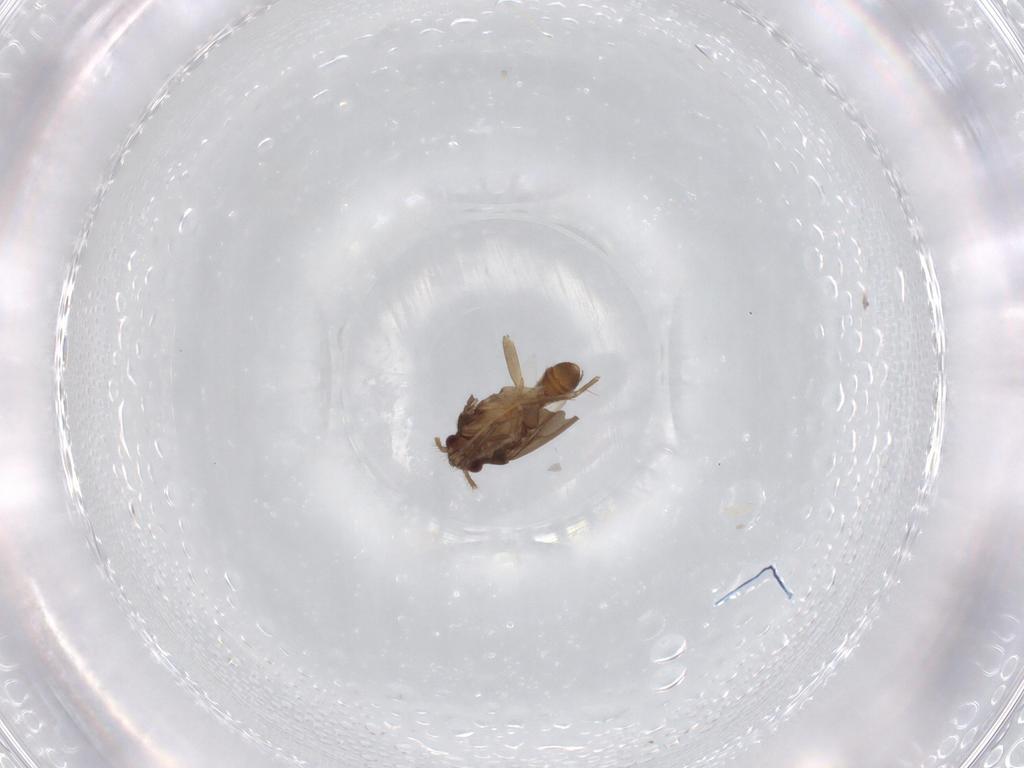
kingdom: Animalia
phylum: Arthropoda
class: Insecta
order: Hemiptera
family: Ceratocombidae
